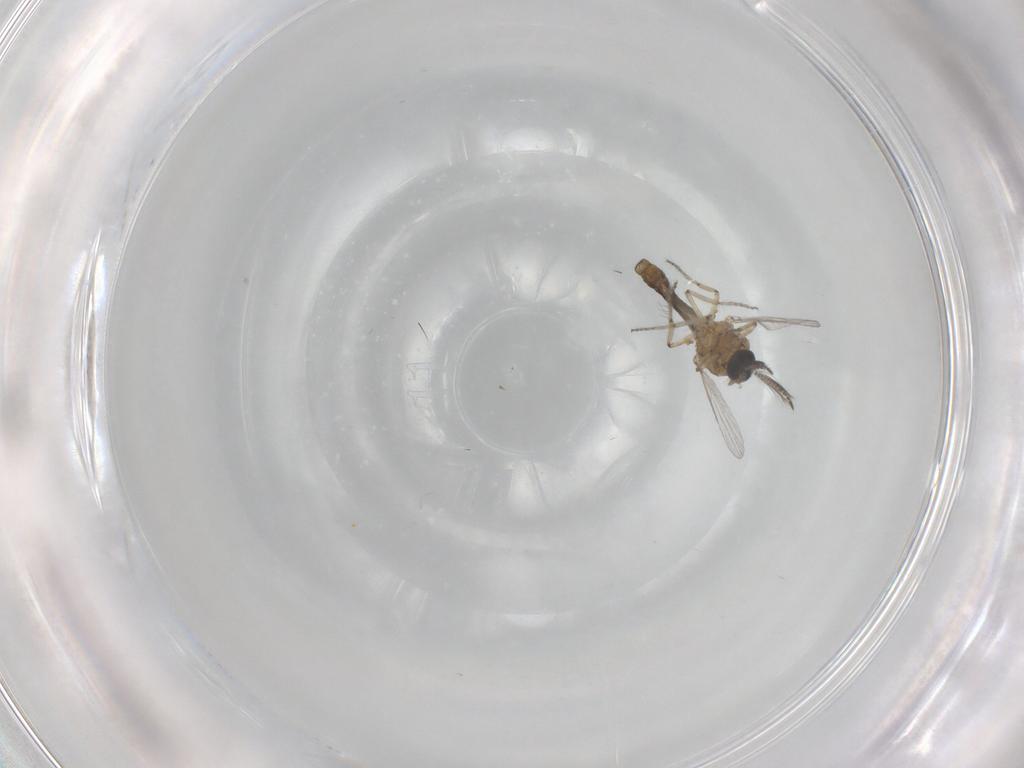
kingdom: Animalia
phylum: Arthropoda
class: Insecta
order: Diptera
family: Ceratopogonidae
